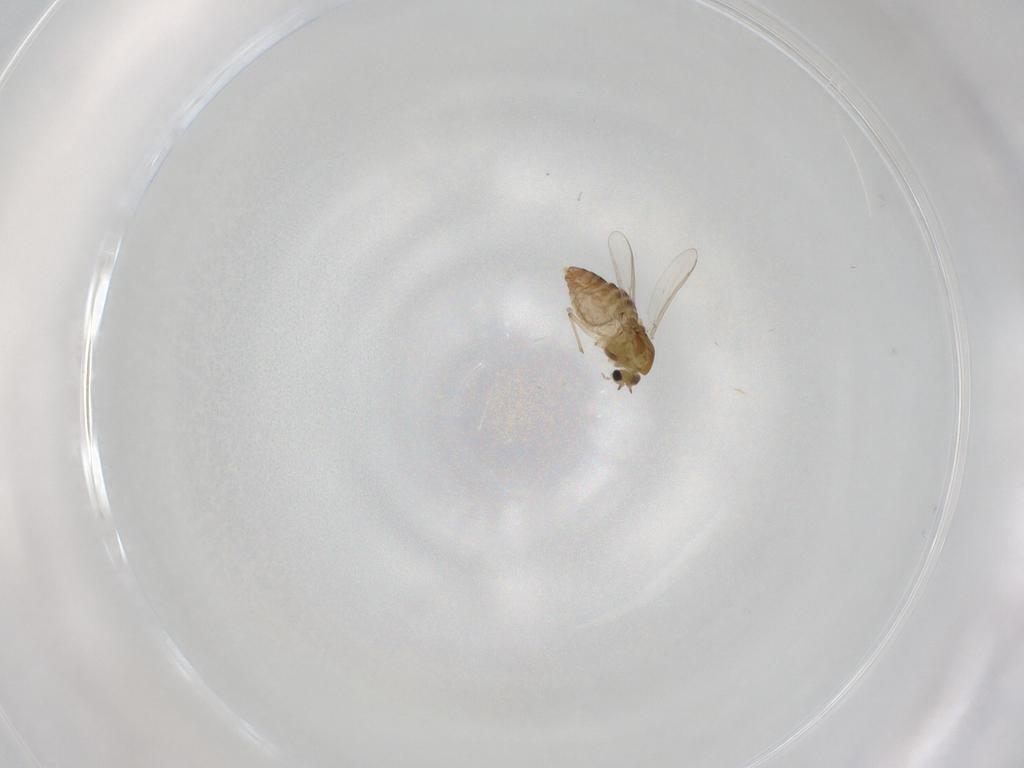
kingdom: Animalia
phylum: Arthropoda
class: Insecta
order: Diptera
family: Chironomidae
